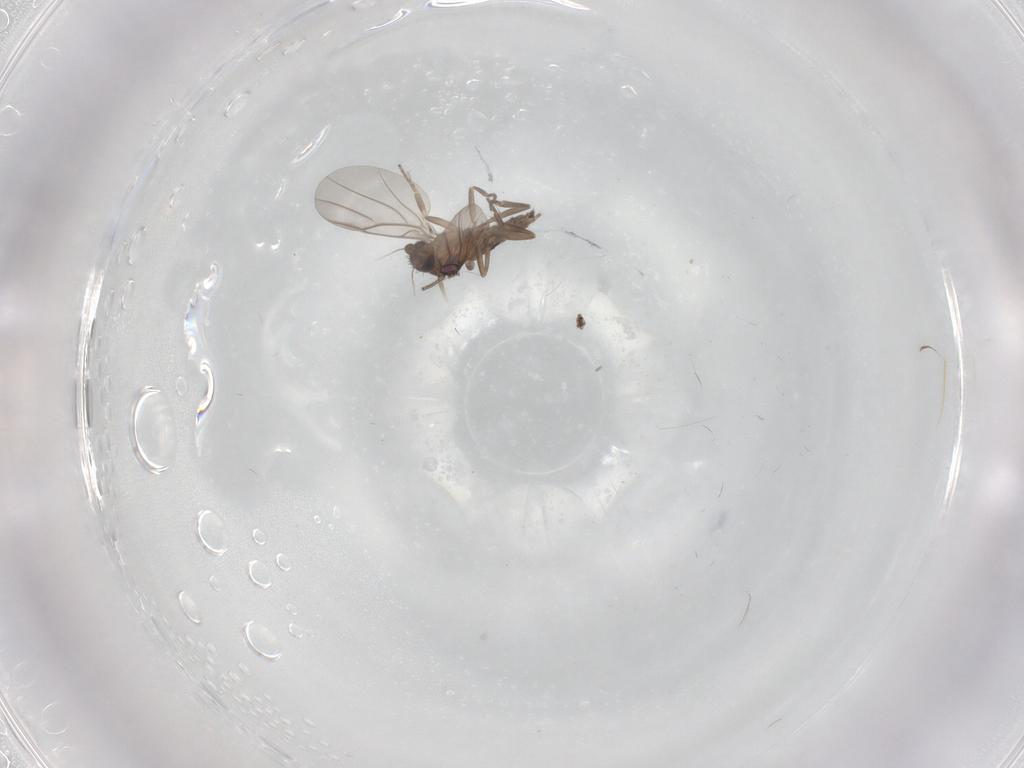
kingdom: Animalia
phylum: Arthropoda
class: Insecta
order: Diptera
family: Phoridae
